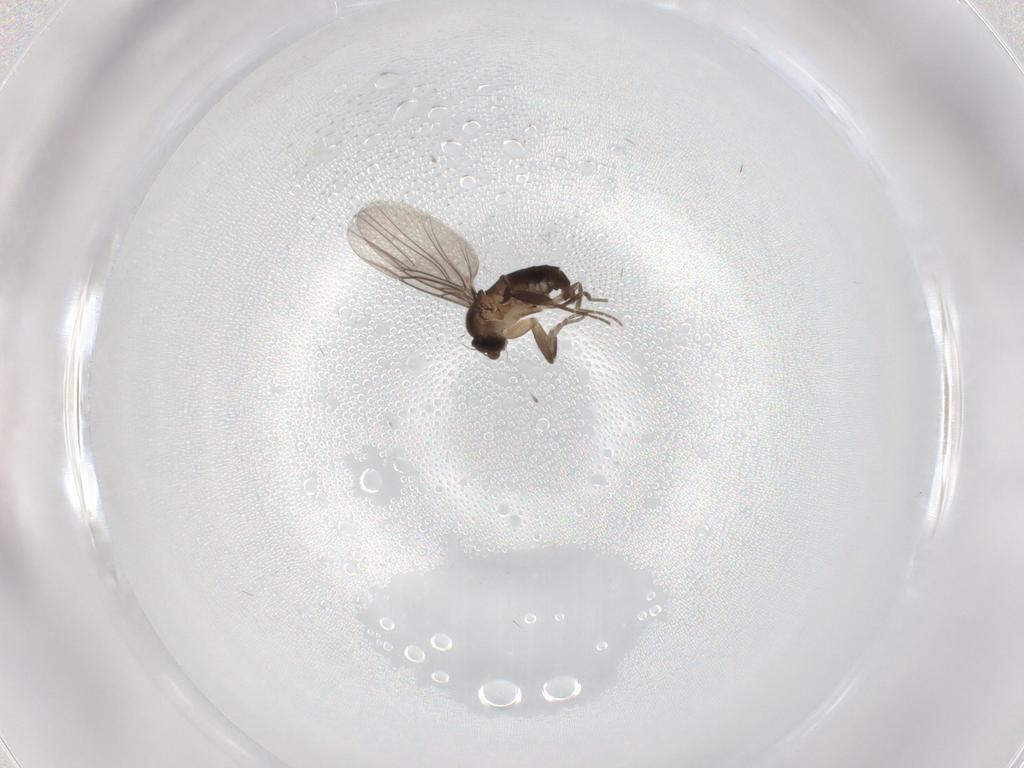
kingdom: Animalia
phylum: Arthropoda
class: Insecta
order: Diptera
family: Phoridae
